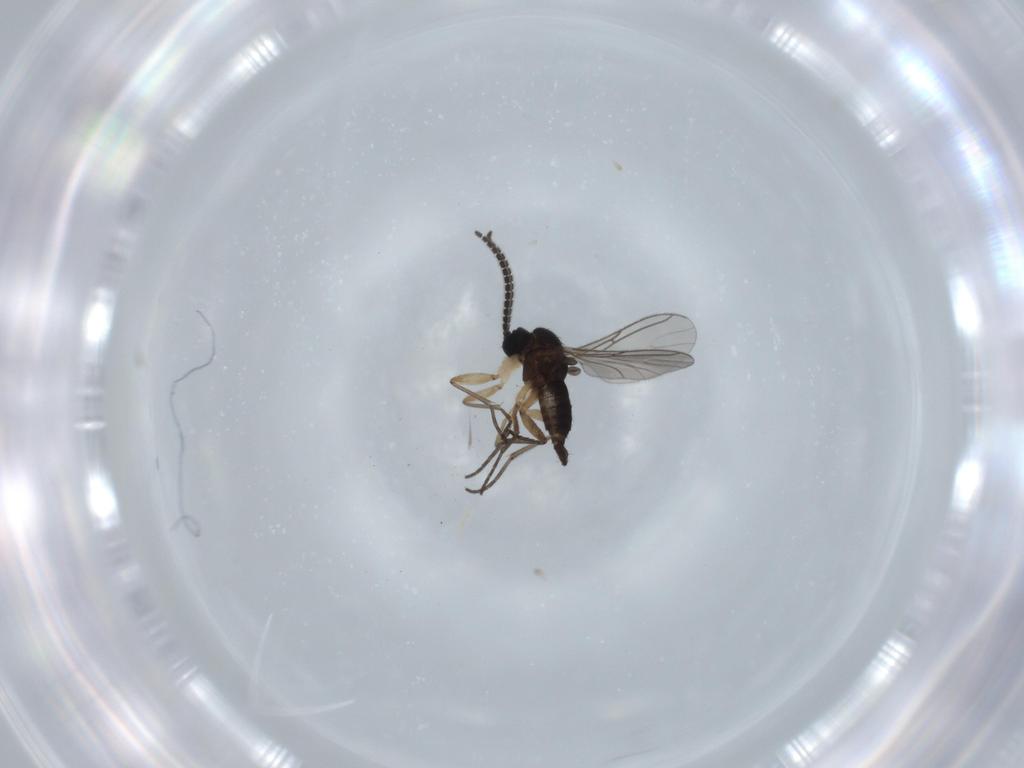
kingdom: Animalia
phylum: Arthropoda
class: Insecta
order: Diptera
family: Sciaridae
